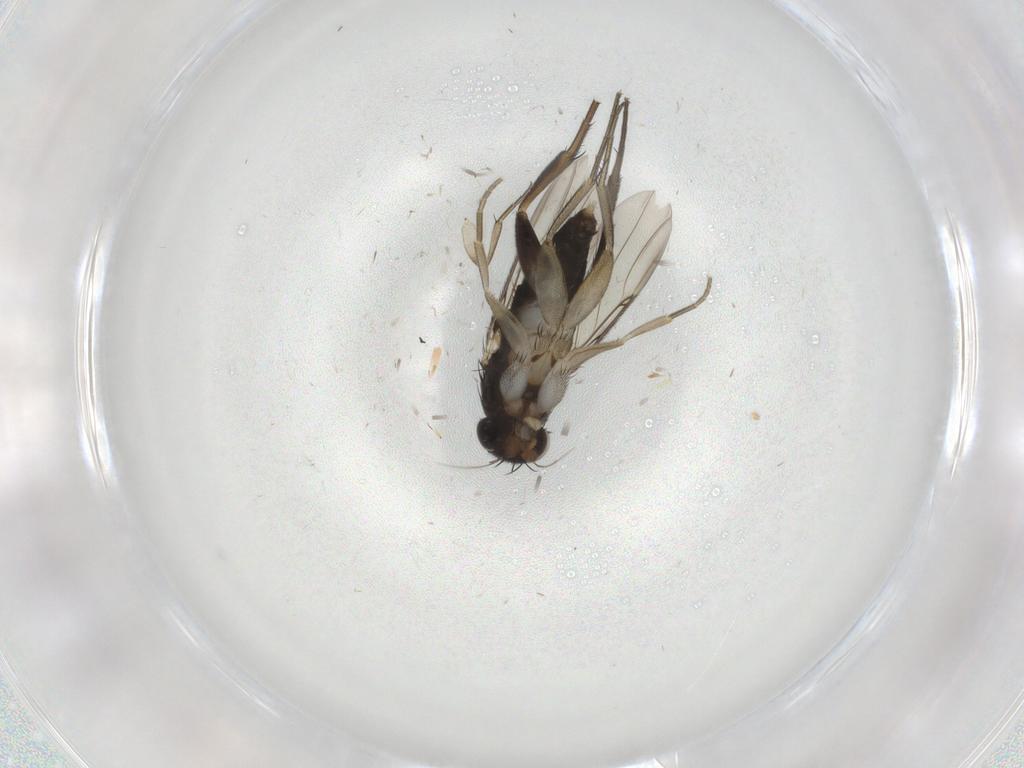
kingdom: Animalia
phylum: Arthropoda
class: Insecta
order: Diptera
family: Phoridae
